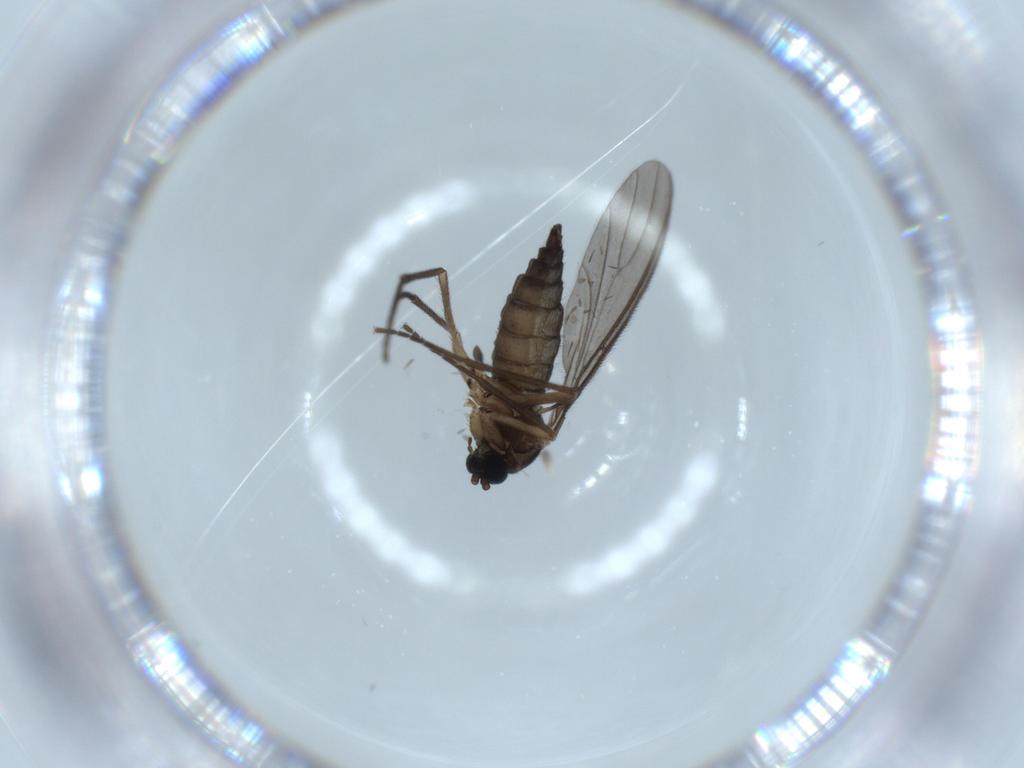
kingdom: Animalia
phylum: Arthropoda
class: Insecta
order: Diptera
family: Sciaridae
